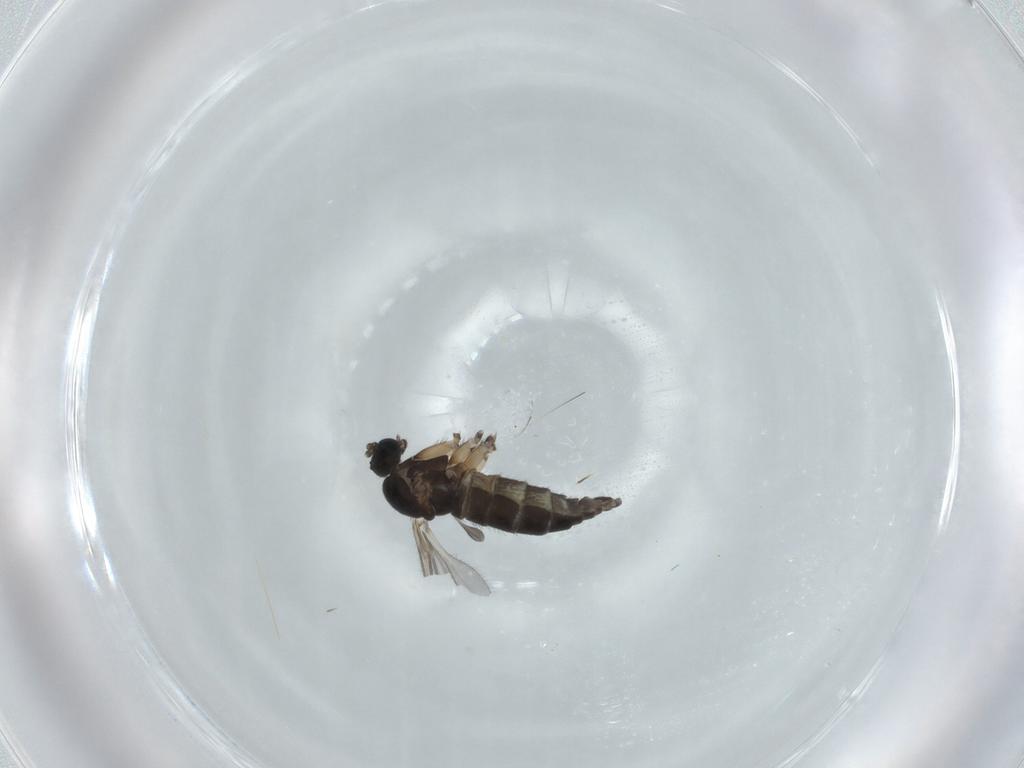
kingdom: Animalia
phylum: Arthropoda
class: Insecta
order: Diptera
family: Sciaridae
